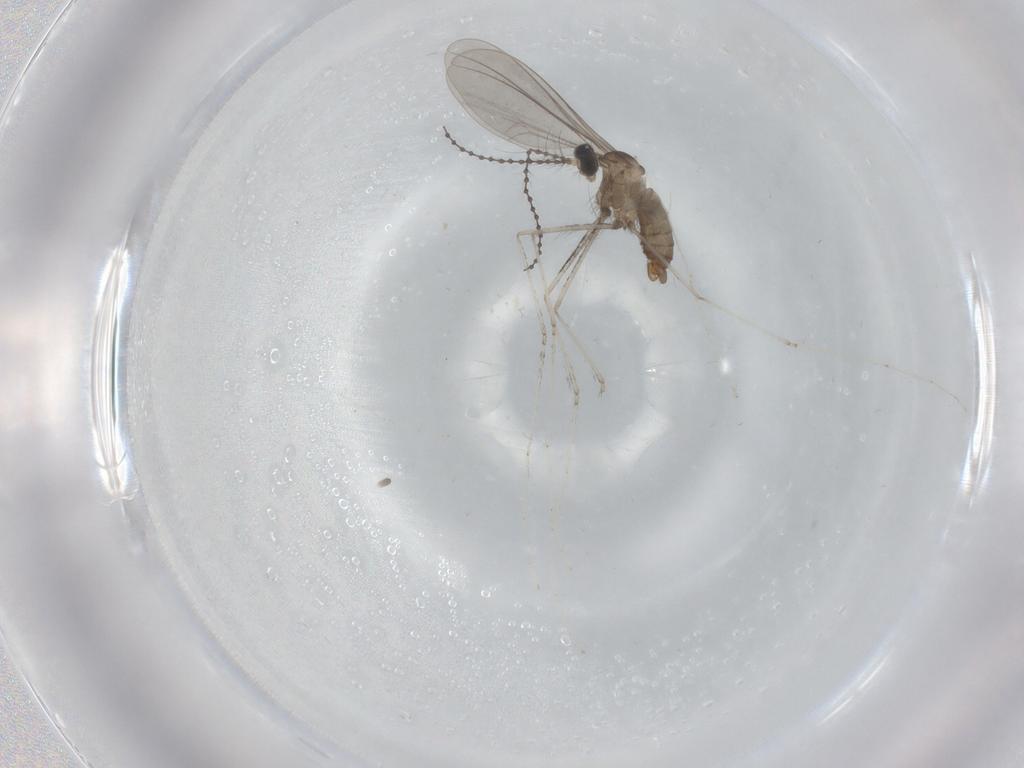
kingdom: Animalia
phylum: Arthropoda
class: Insecta
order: Diptera
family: Cecidomyiidae
